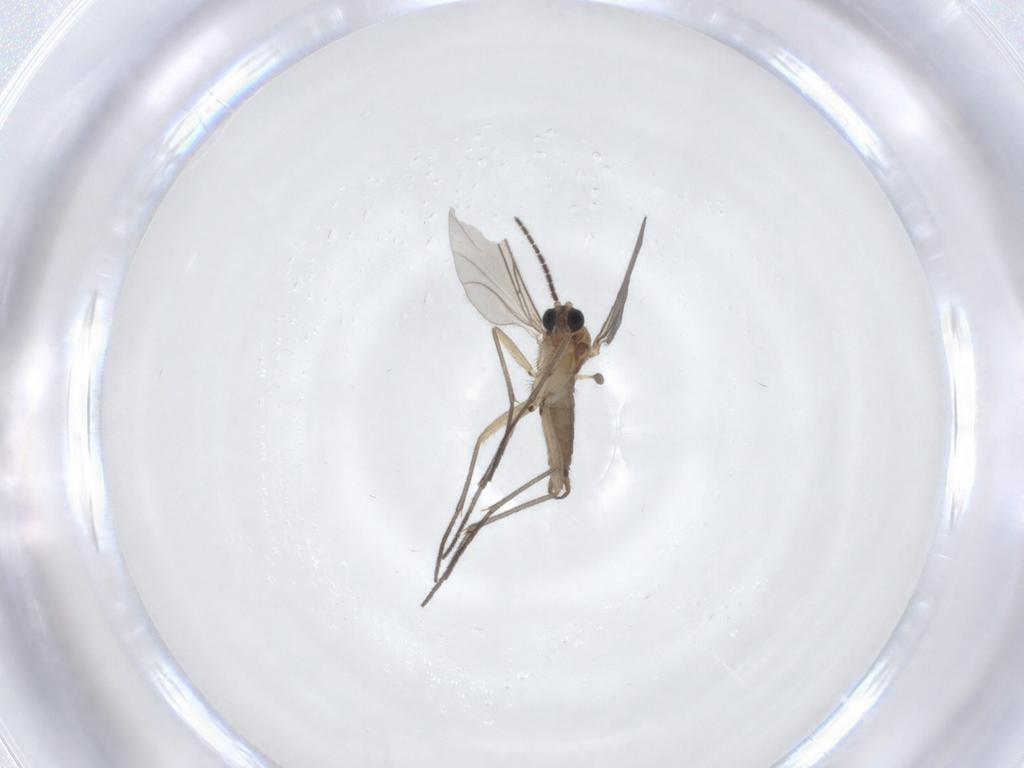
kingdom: Animalia
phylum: Arthropoda
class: Insecta
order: Diptera
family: Sciaridae
